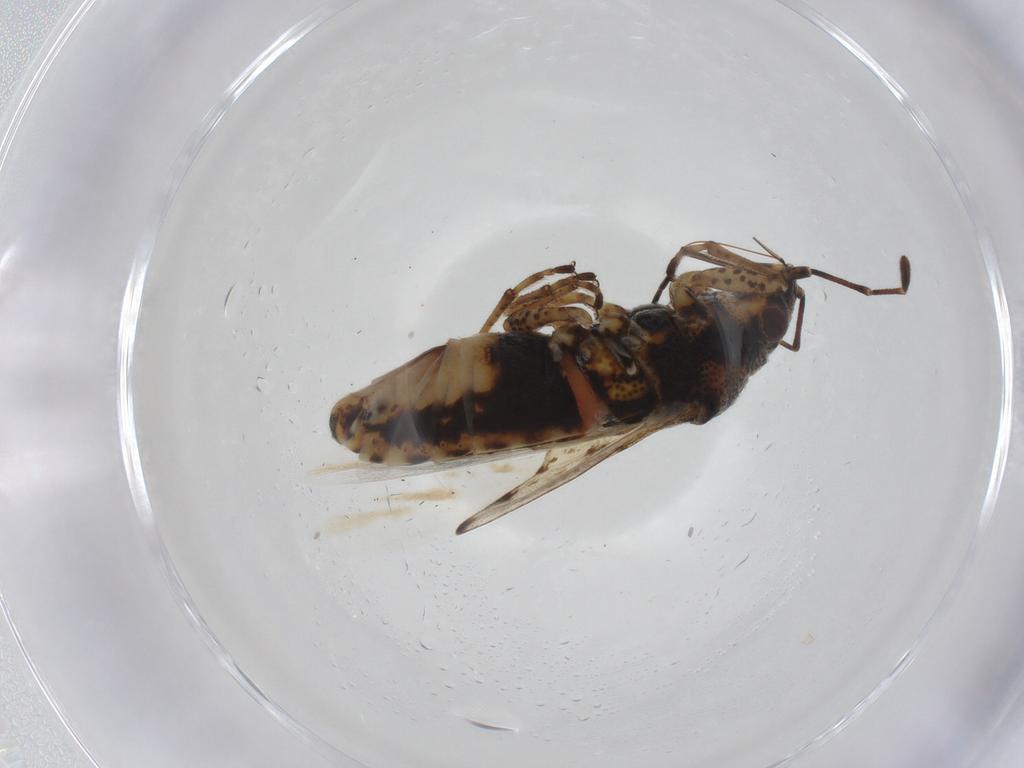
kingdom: Animalia
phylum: Arthropoda
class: Insecta
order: Hemiptera
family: Aphididae
